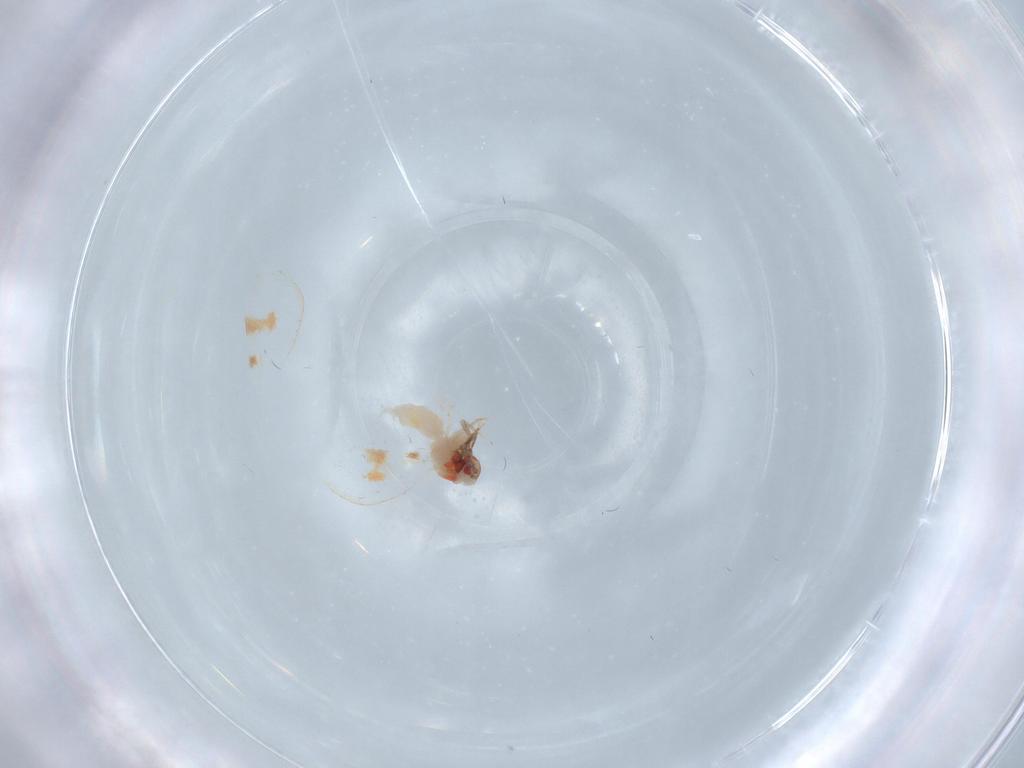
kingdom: Animalia
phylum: Arthropoda
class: Insecta
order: Hemiptera
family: Aleyrodidae
